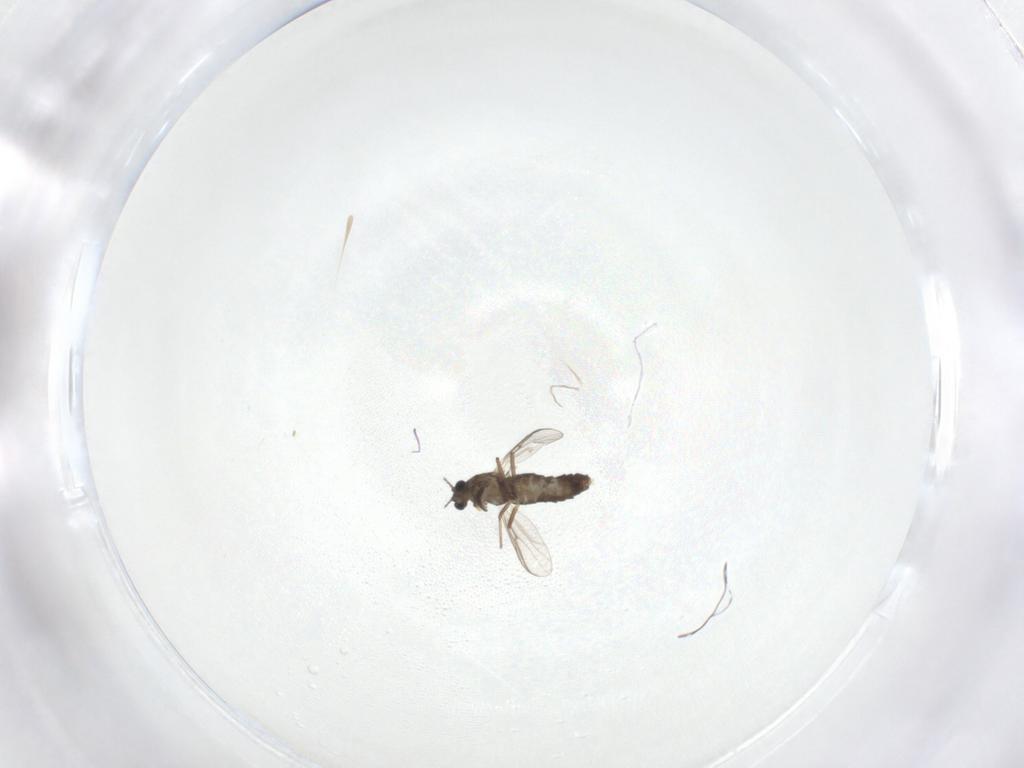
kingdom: Animalia
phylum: Arthropoda
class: Insecta
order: Diptera
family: Chironomidae
